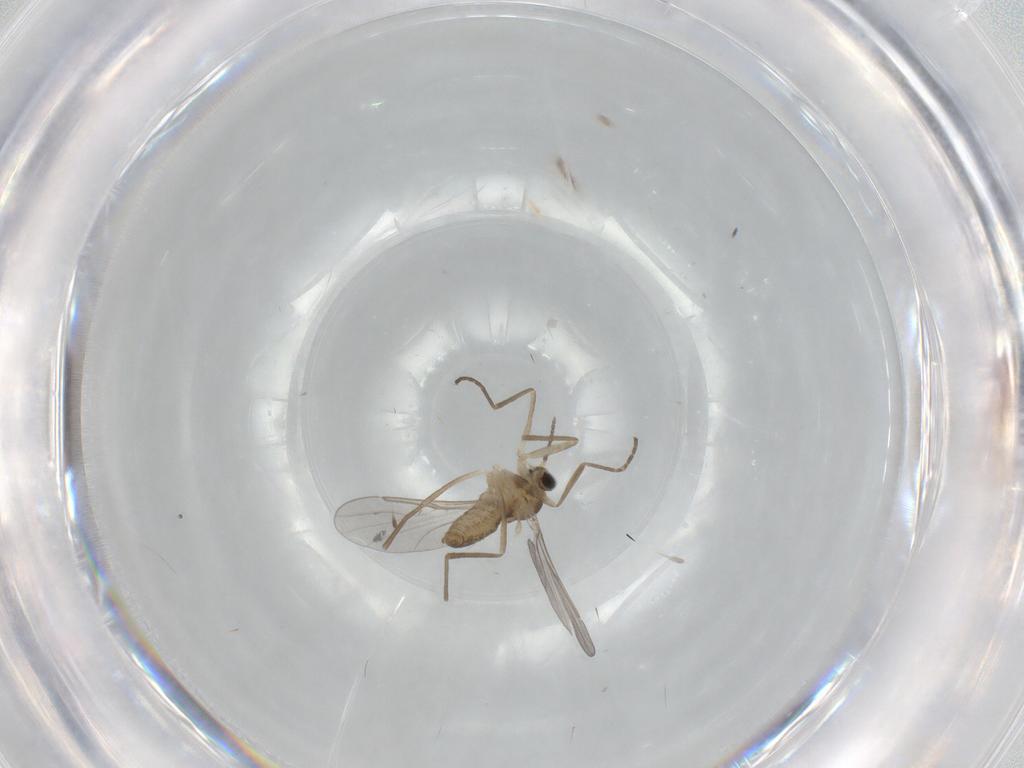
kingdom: Animalia
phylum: Arthropoda
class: Insecta
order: Diptera
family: Cecidomyiidae
